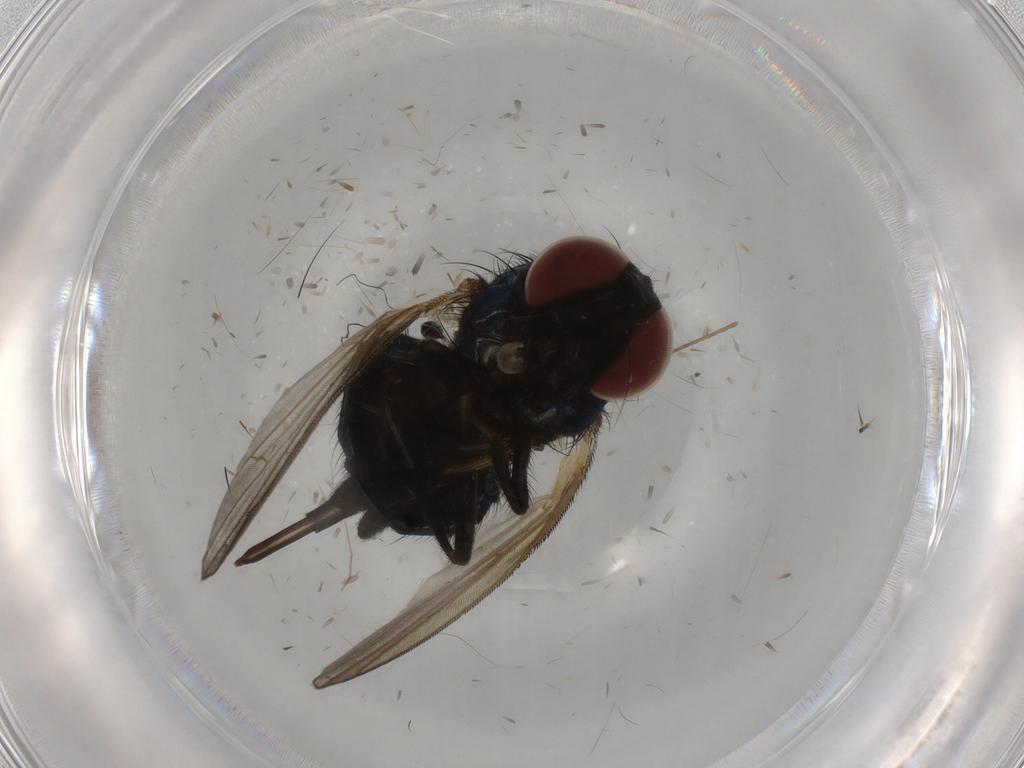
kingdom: Animalia
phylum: Arthropoda
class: Insecta
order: Diptera
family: Lonchaeidae
